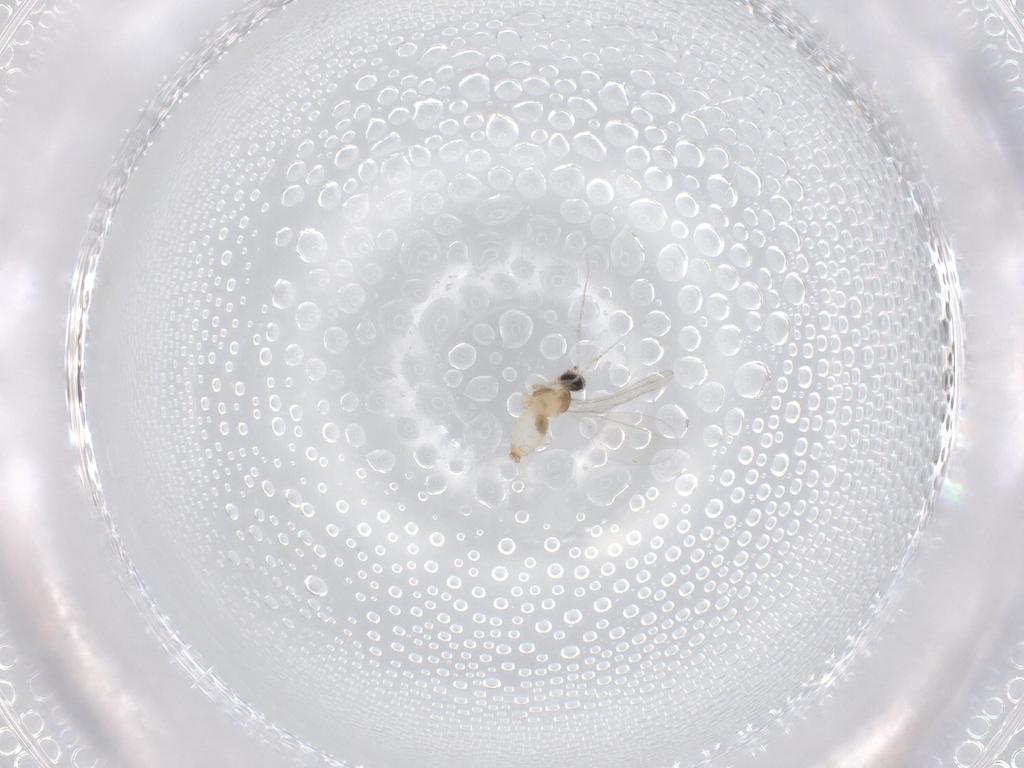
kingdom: Animalia
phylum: Arthropoda
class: Insecta
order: Diptera
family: Cecidomyiidae
